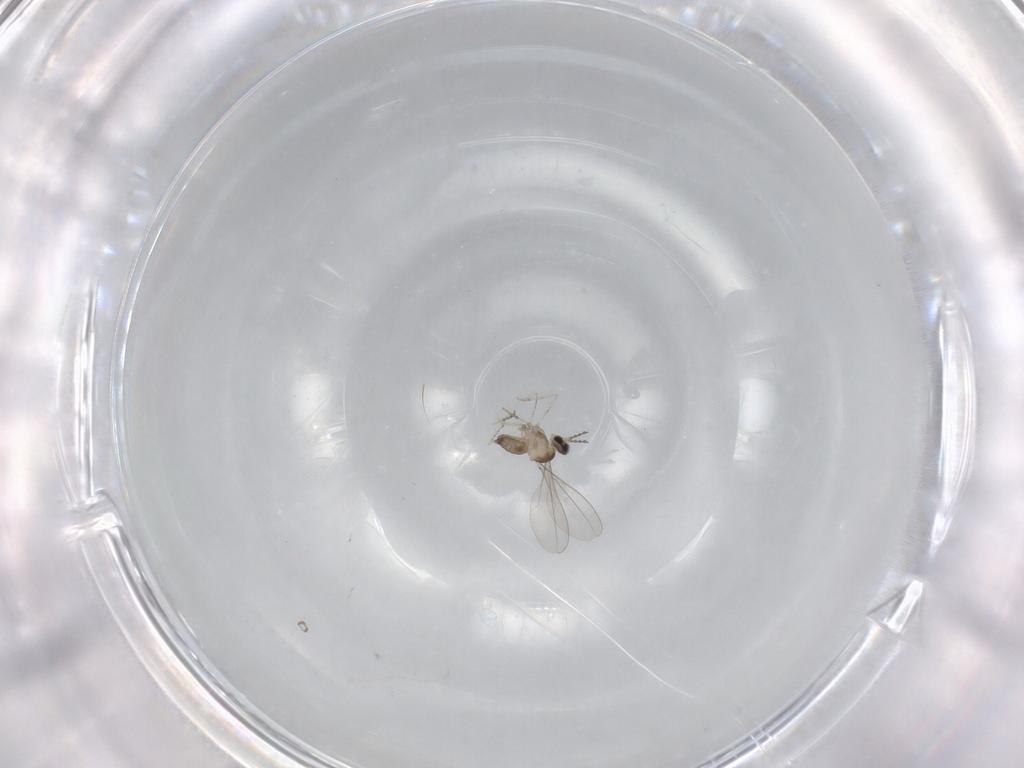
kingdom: Animalia
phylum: Arthropoda
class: Insecta
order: Diptera
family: Cecidomyiidae
